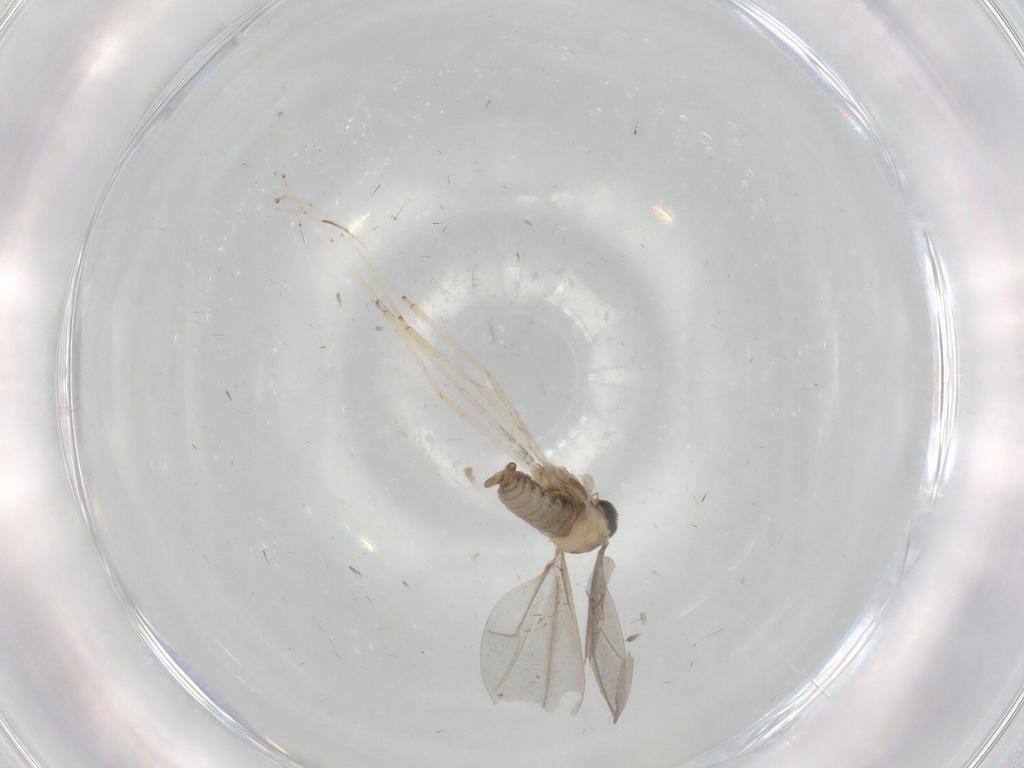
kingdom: Animalia
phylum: Arthropoda
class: Insecta
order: Diptera
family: Cecidomyiidae
